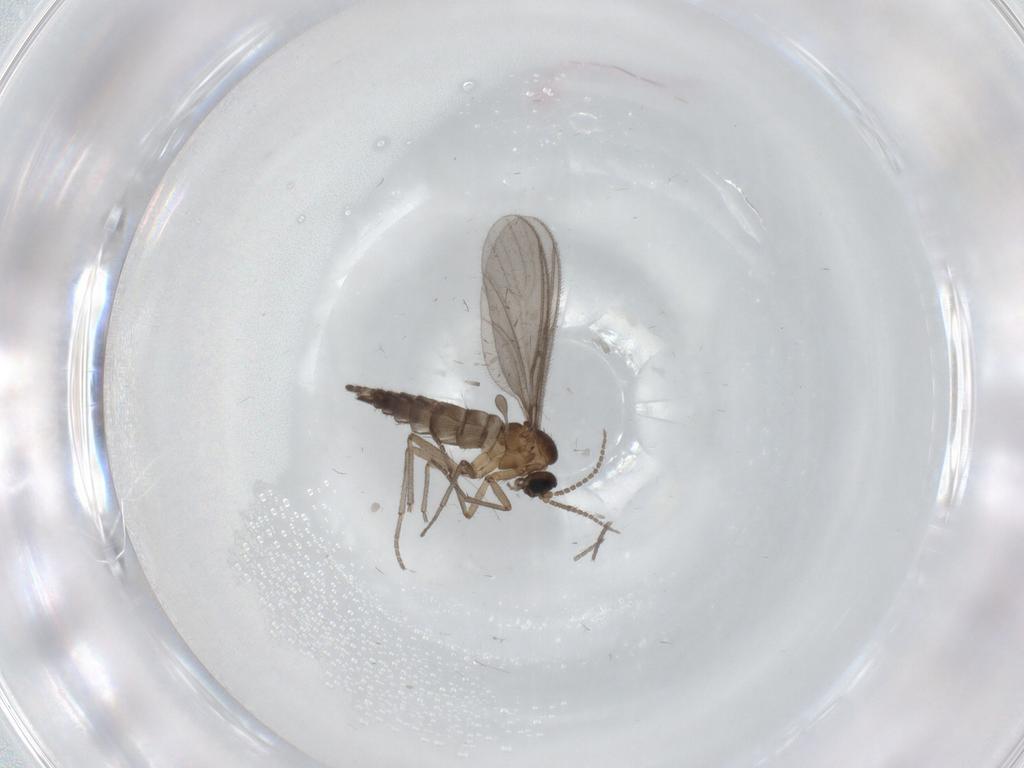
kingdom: Animalia
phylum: Arthropoda
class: Insecta
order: Diptera
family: Sciaridae
